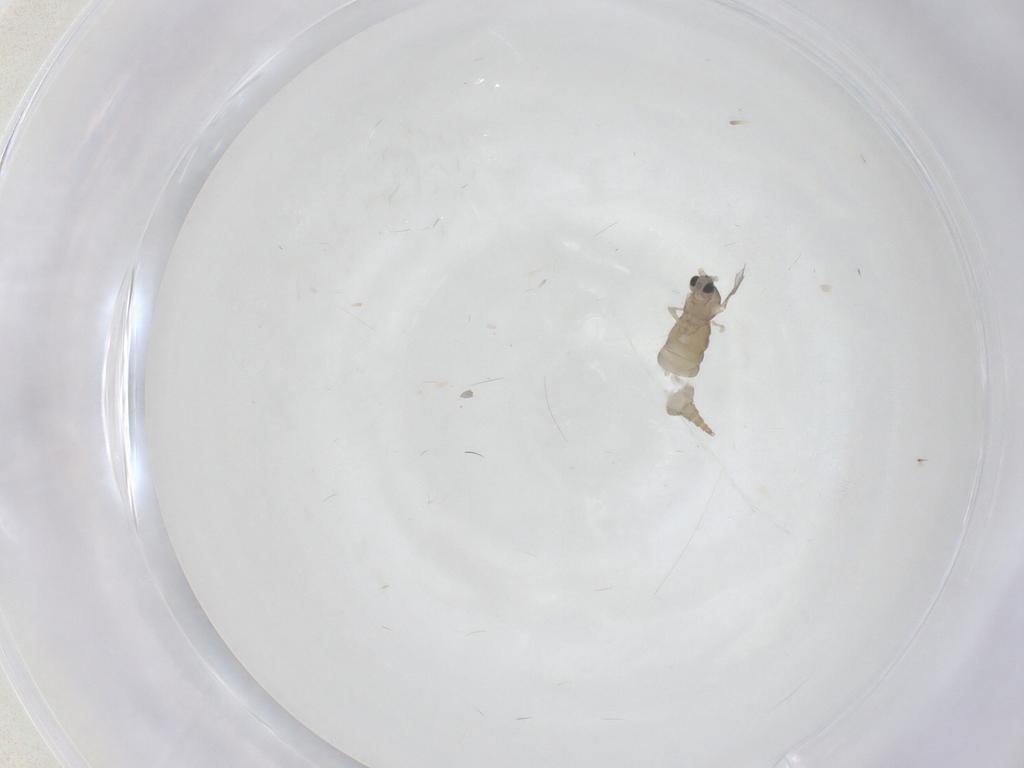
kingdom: Animalia
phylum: Arthropoda
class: Insecta
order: Diptera
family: Cecidomyiidae
